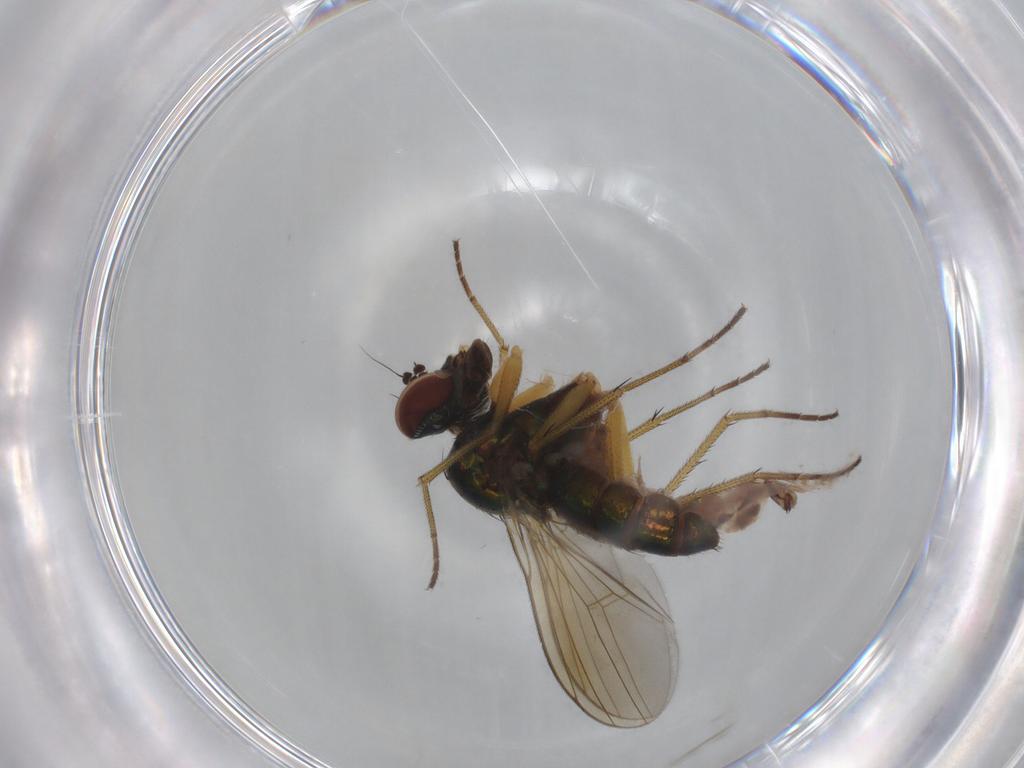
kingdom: Animalia
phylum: Arthropoda
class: Insecta
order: Diptera
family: Dolichopodidae
